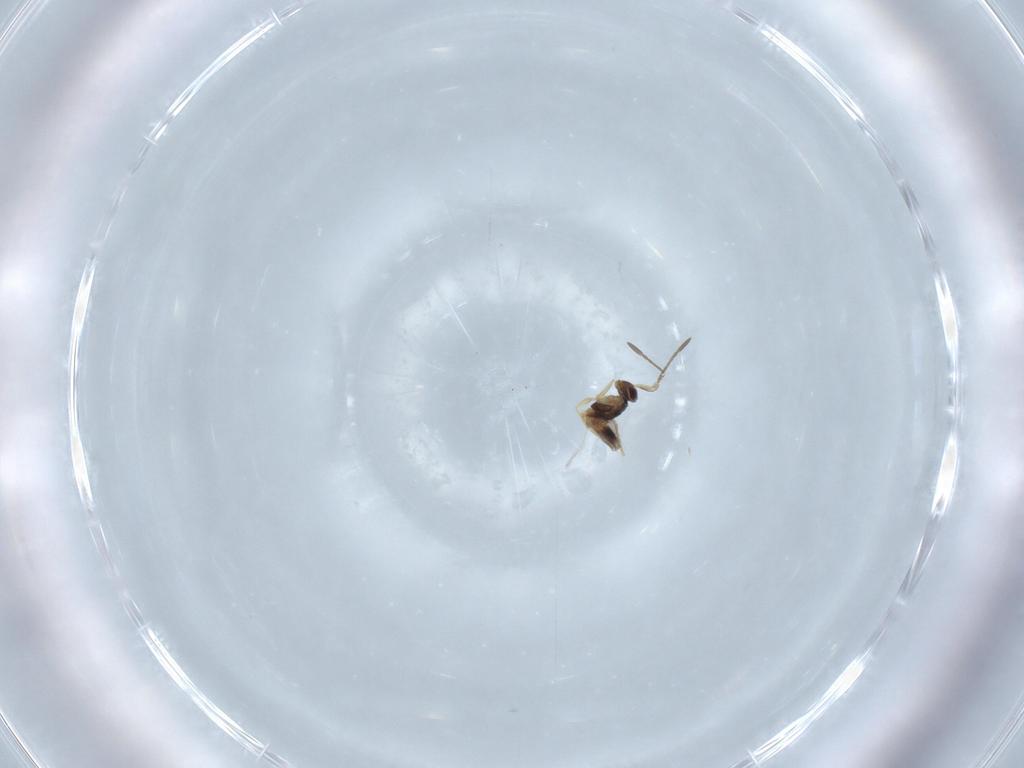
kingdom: Animalia
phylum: Arthropoda
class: Insecta
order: Hymenoptera
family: Mymaridae
